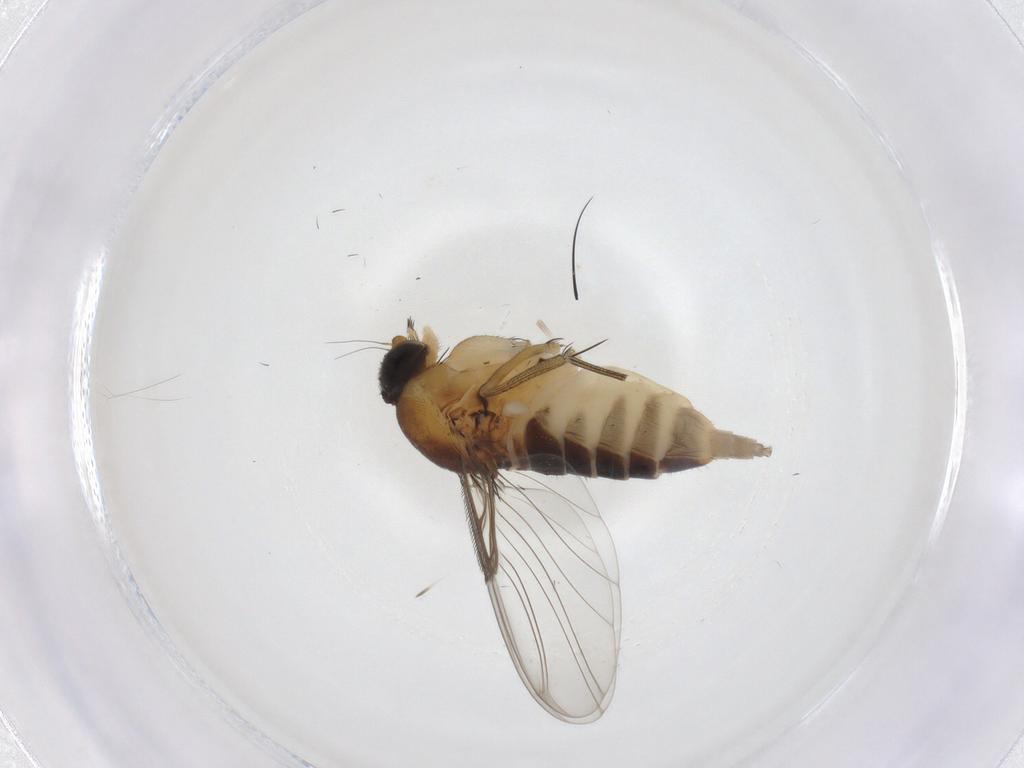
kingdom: Animalia
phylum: Arthropoda
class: Insecta
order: Diptera
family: Phoridae
